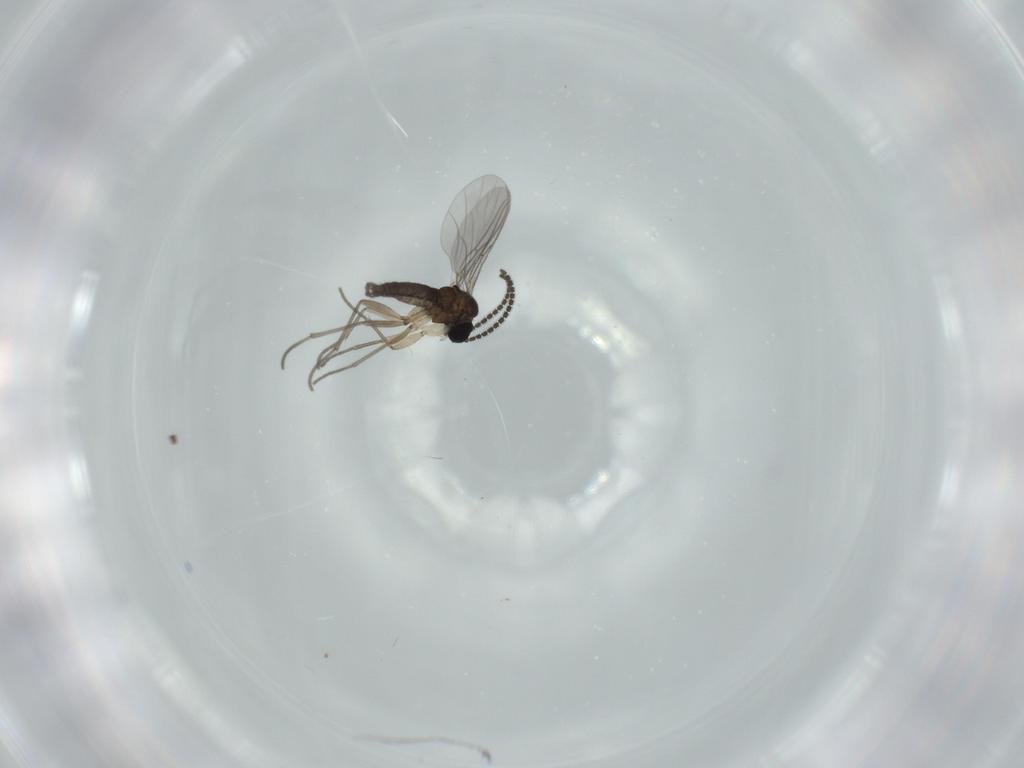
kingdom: Animalia
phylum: Arthropoda
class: Insecta
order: Diptera
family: Sciaridae
